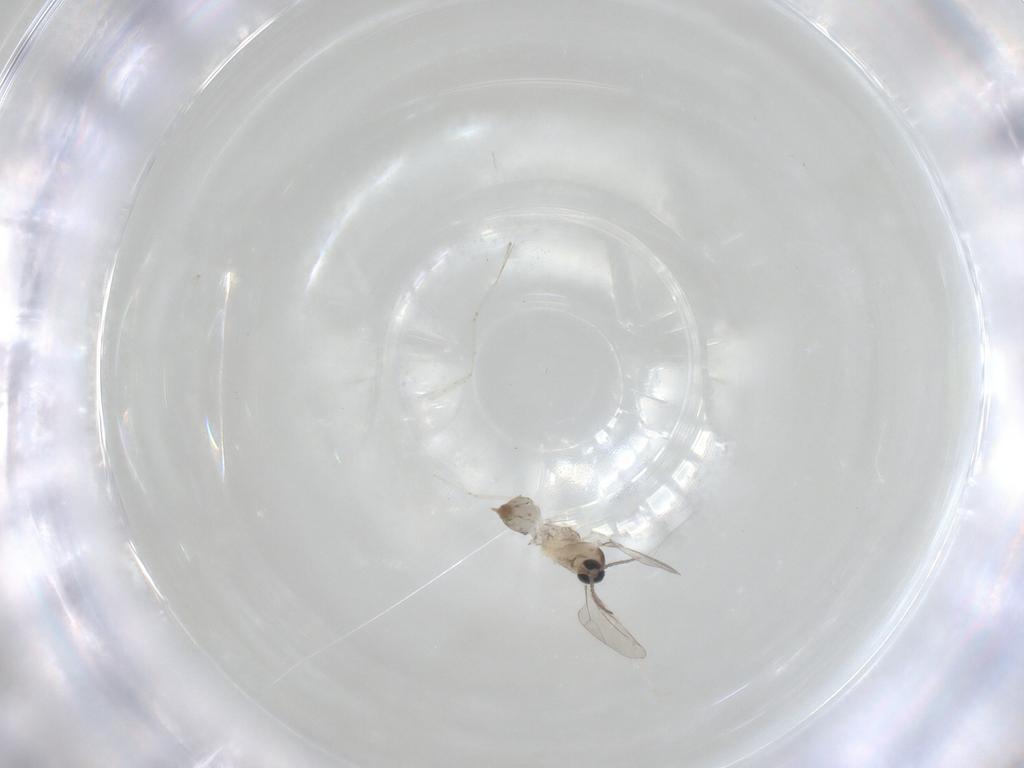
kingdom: Animalia
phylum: Arthropoda
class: Insecta
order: Diptera
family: Cecidomyiidae
